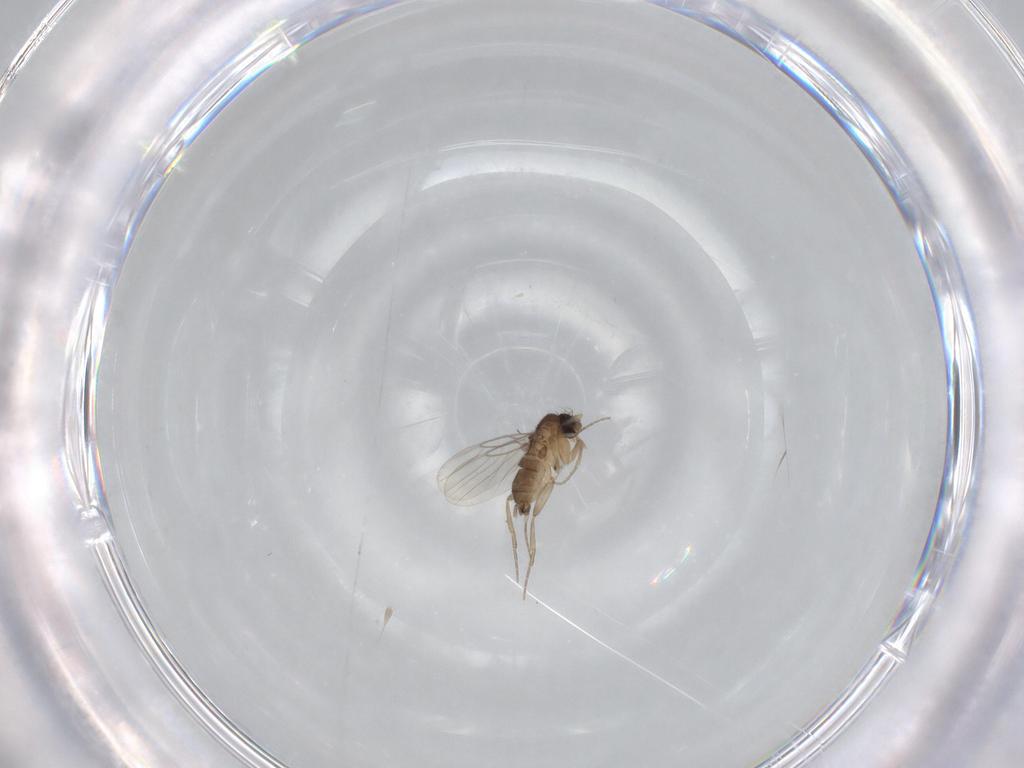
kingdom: Animalia
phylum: Arthropoda
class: Insecta
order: Diptera
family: Phoridae
